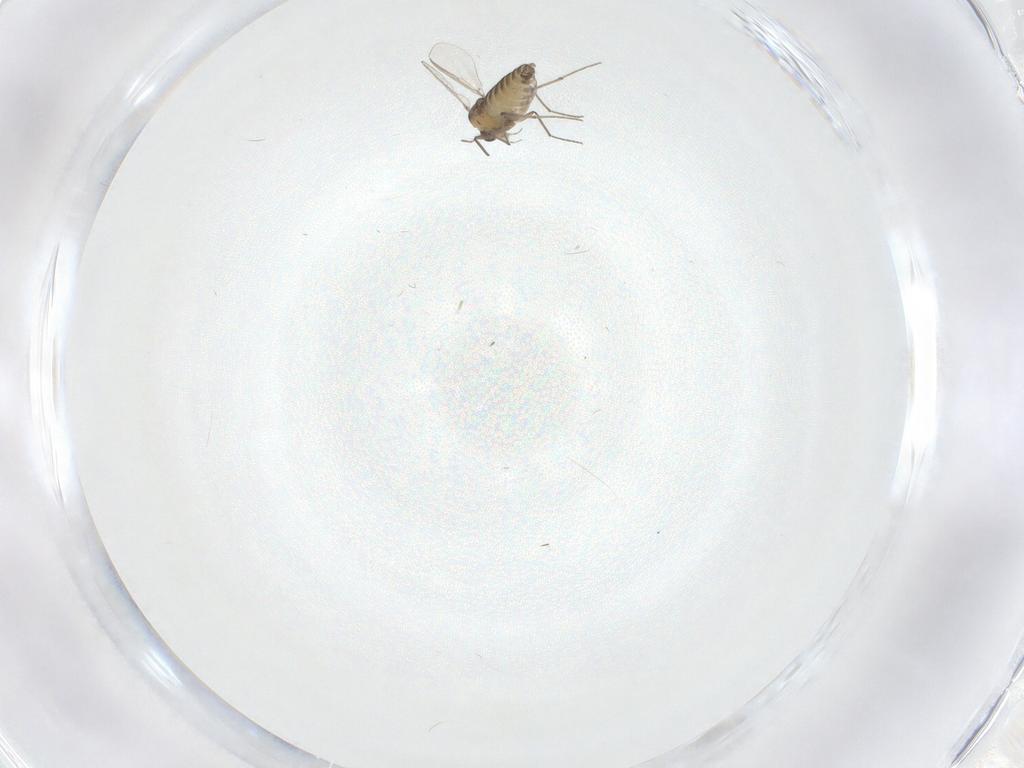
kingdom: Animalia
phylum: Arthropoda
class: Insecta
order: Diptera
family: Chironomidae
